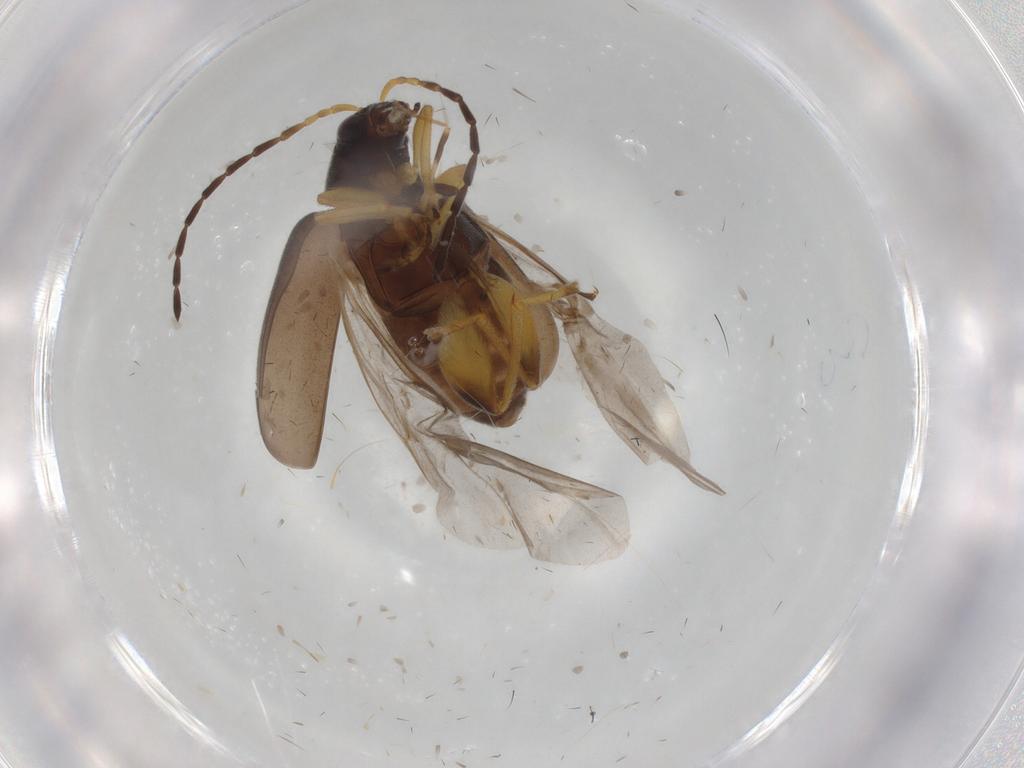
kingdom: Animalia
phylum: Arthropoda
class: Insecta
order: Coleoptera
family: Chrysomelidae
